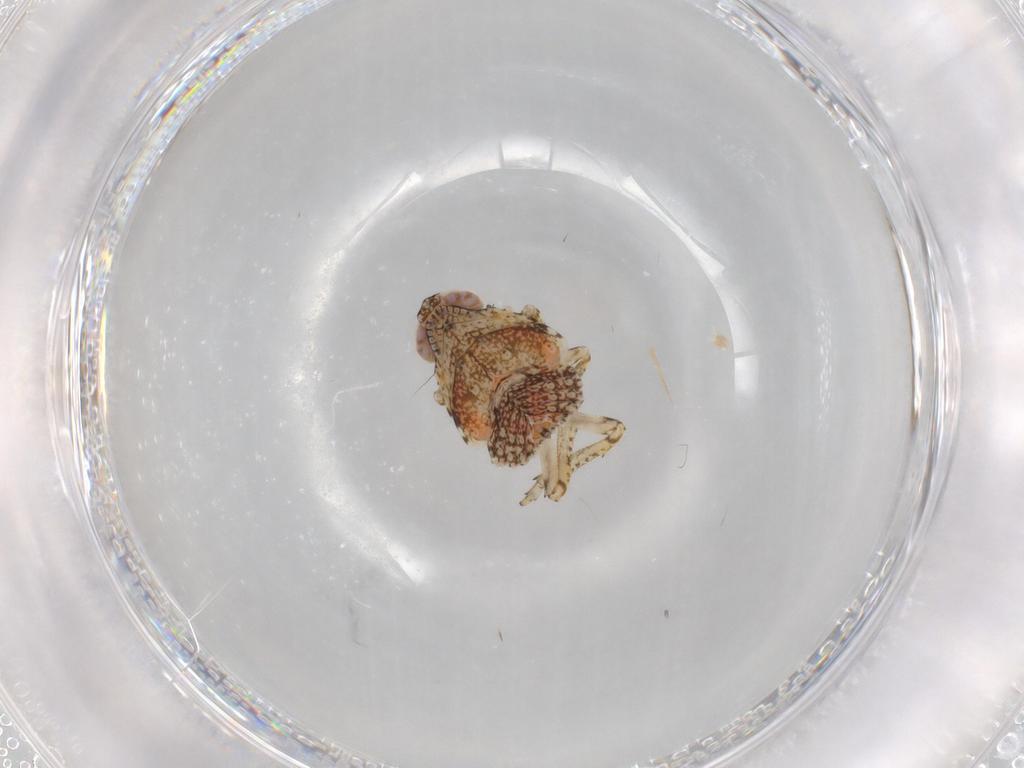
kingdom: Animalia
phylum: Arthropoda
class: Insecta
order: Hemiptera
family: Issidae
